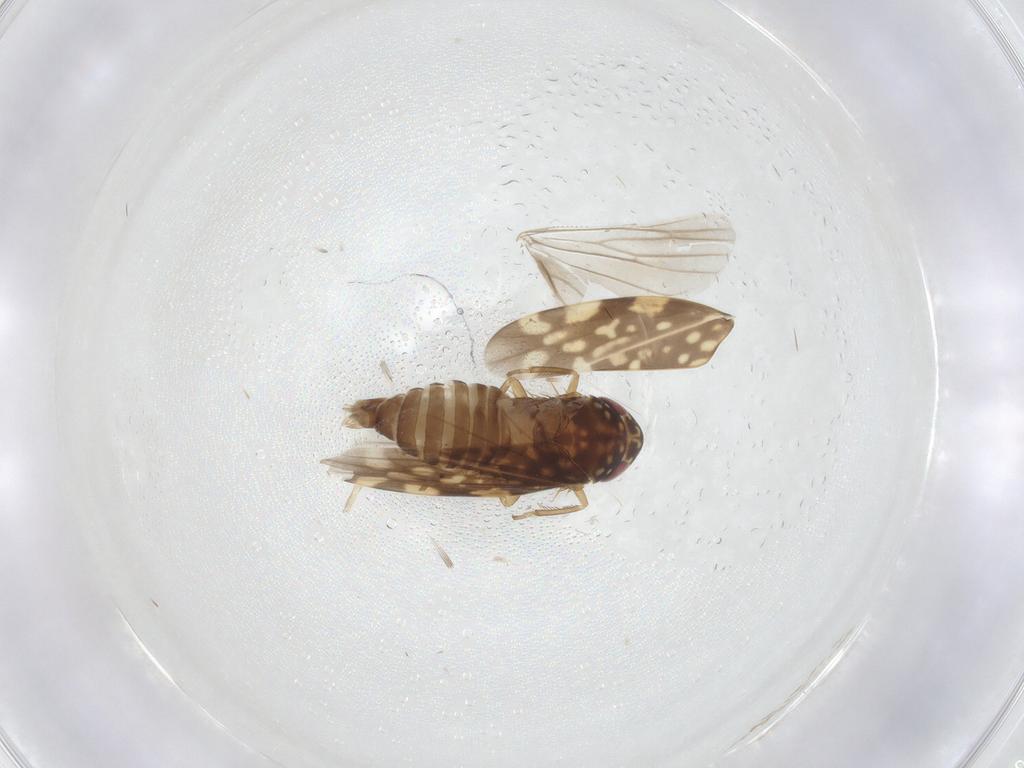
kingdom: Animalia
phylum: Arthropoda
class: Insecta
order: Hemiptera
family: Cicadellidae
